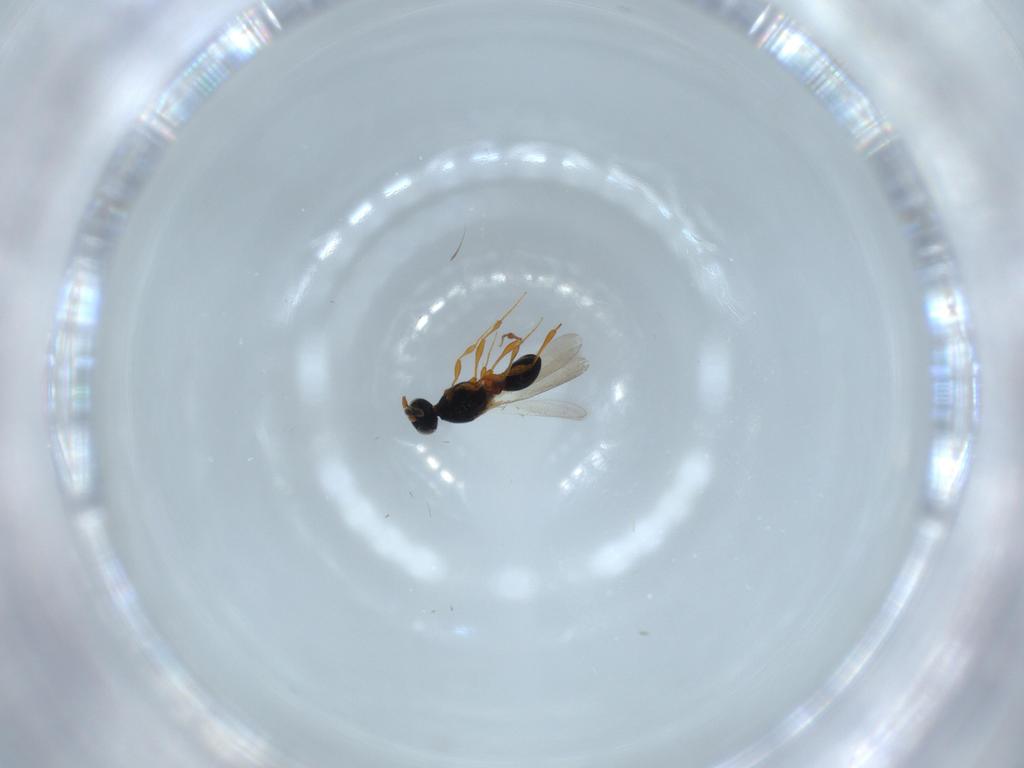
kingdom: Animalia
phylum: Arthropoda
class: Insecta
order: Hymenoptera
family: Platygastridae
